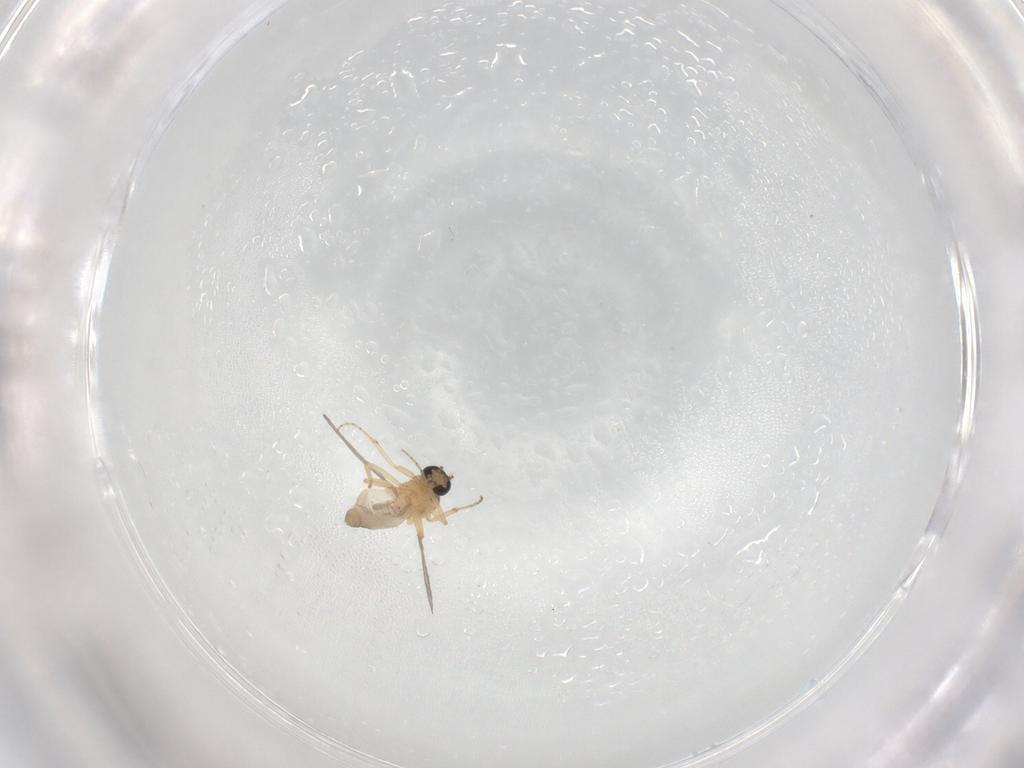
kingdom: Animalia
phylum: Arthropoda
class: Insecta
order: Diptera
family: Ceratopogonidae
